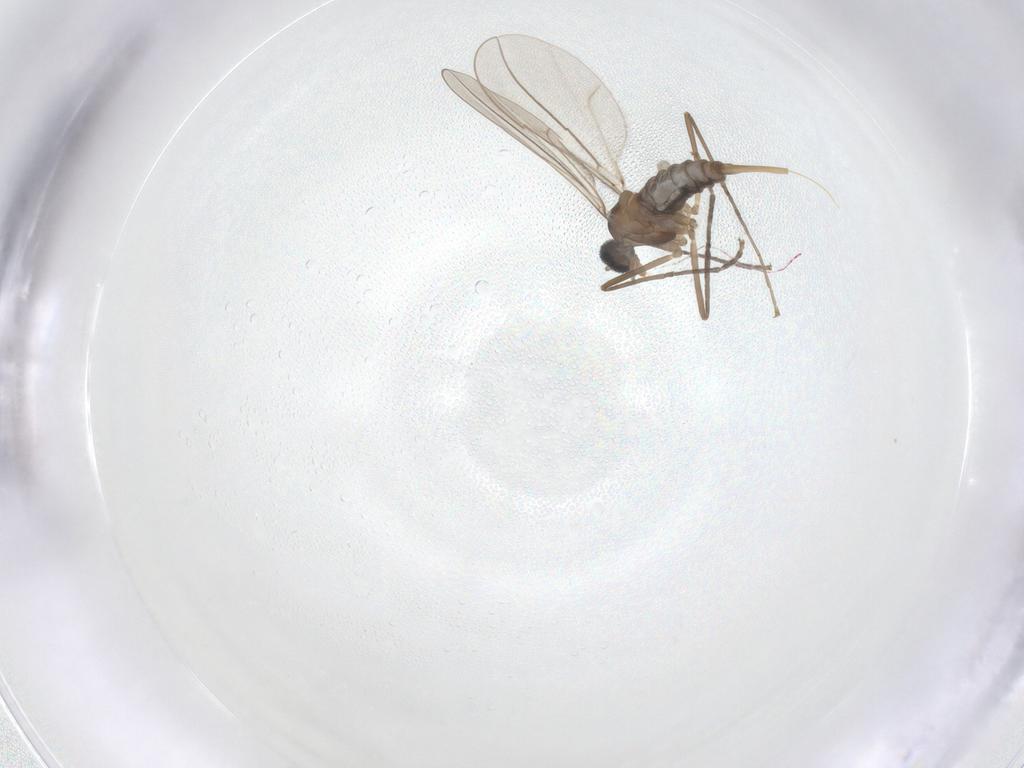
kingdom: Animalia
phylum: Arthropoda
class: Insecta
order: Diptera
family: Cecidomyiidae
